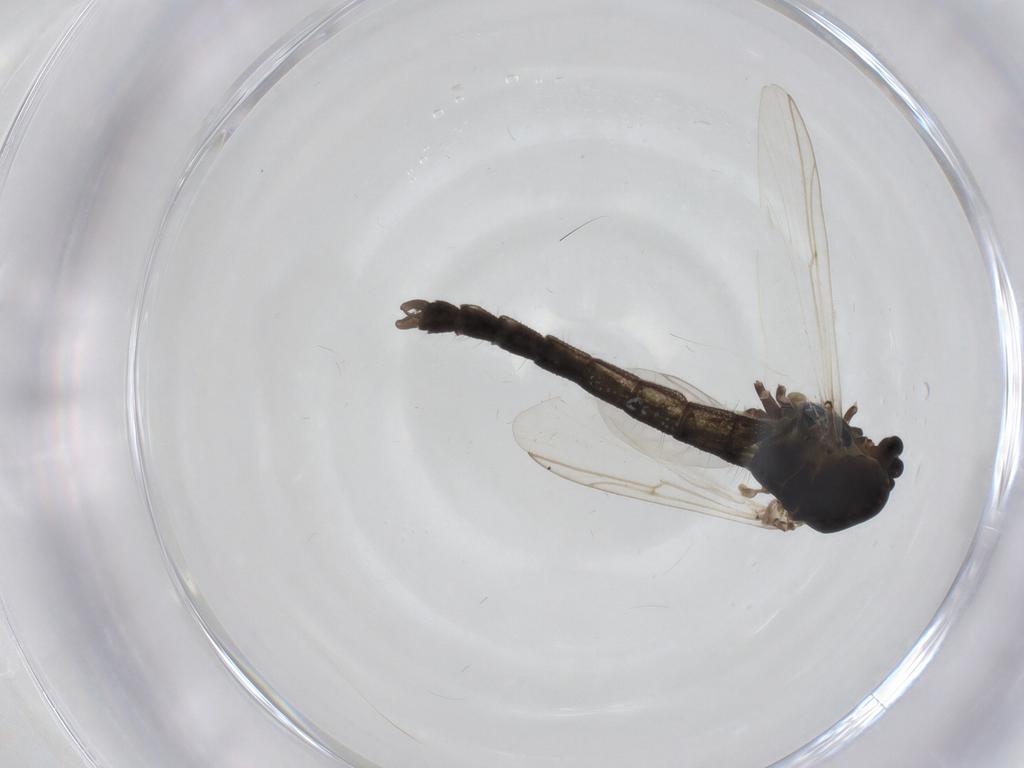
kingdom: Animalia
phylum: Arthropoda
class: Insecta
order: Diptera
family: Chironomidae
